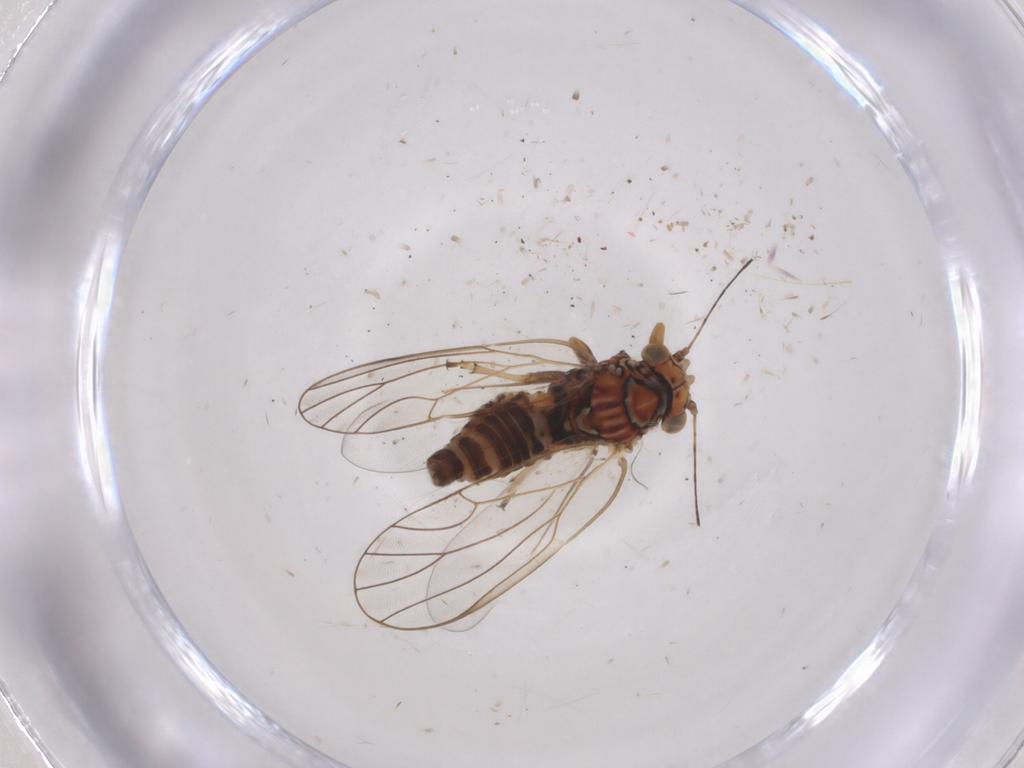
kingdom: Animalia
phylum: Arthropoda
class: Insecta
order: Hemiptera
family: Psyllidae
